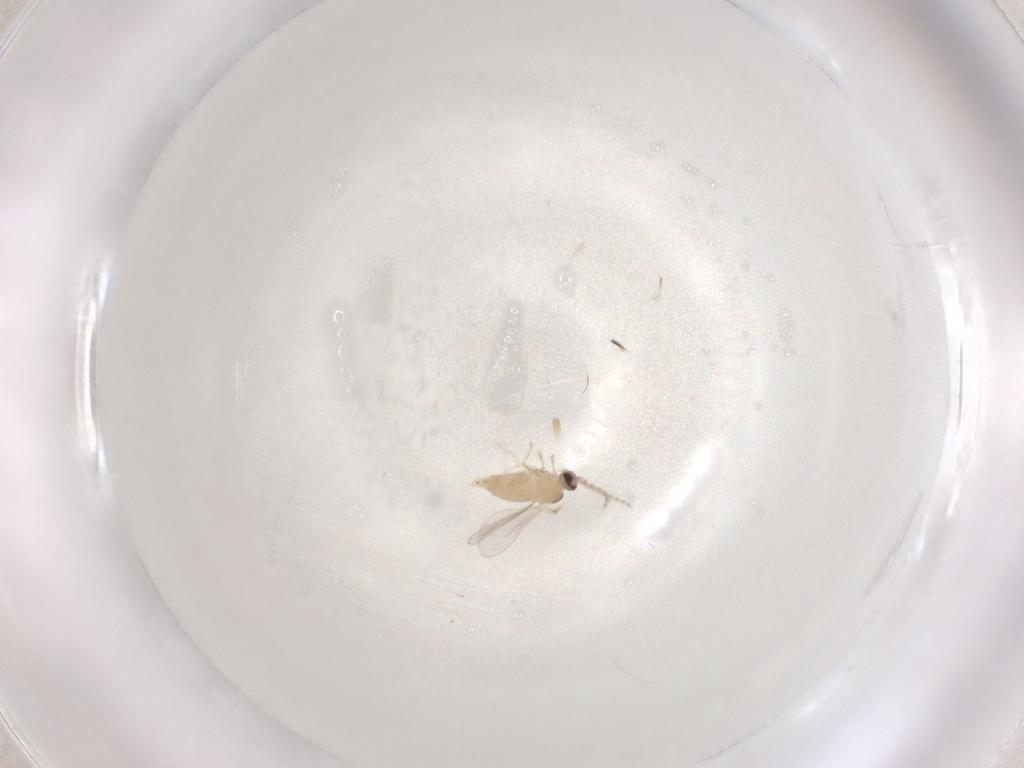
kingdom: Animalia
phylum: Arthropoda
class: Insecta
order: Diptera
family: Cecidomyiidae
